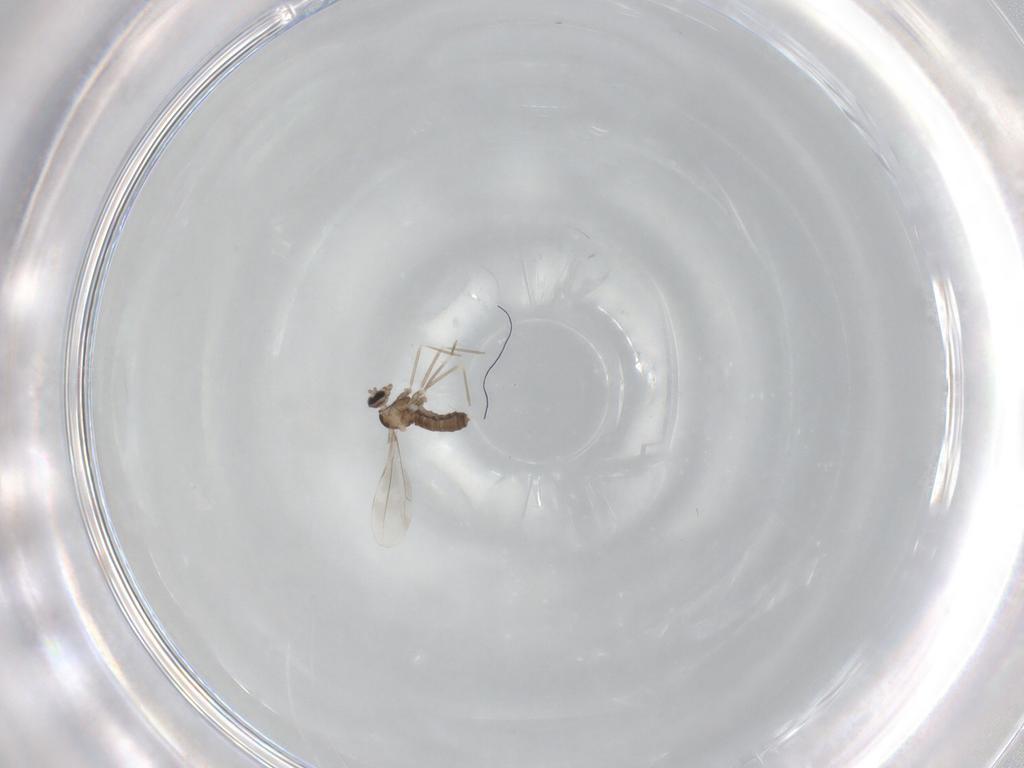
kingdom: Animalia
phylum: Arthropoda
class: Insecta
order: Diptera
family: Cecidomyiidae
